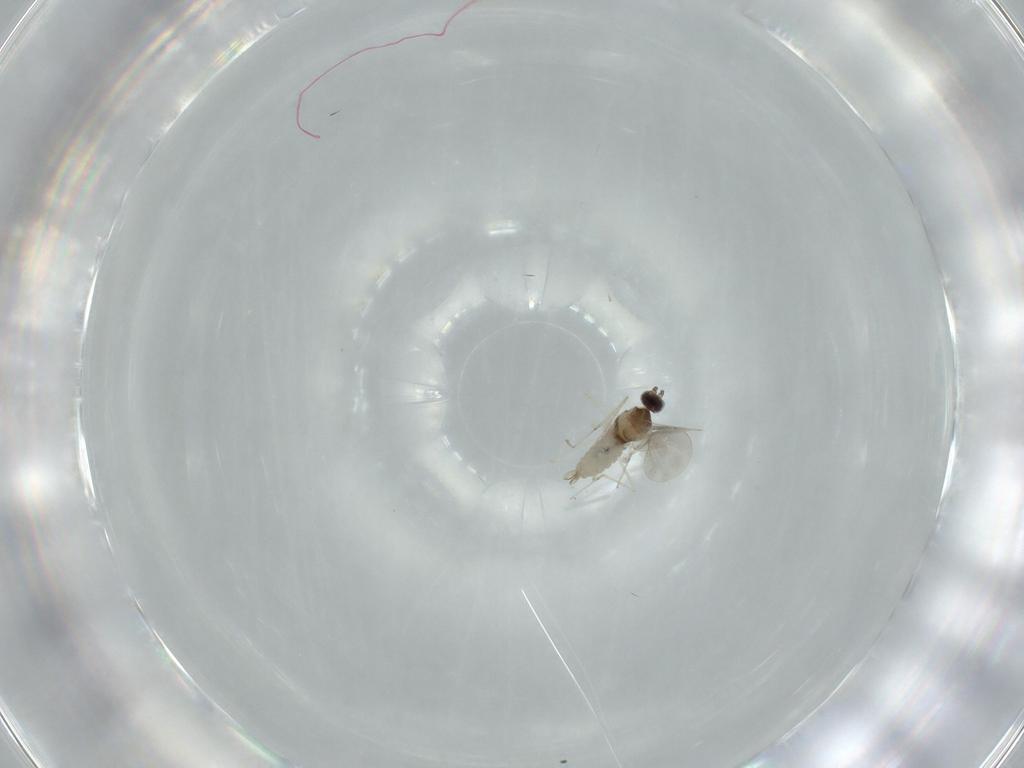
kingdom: Animalia
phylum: Arthropoda
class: Insecta
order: Diptera
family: Cecidomyiidae
